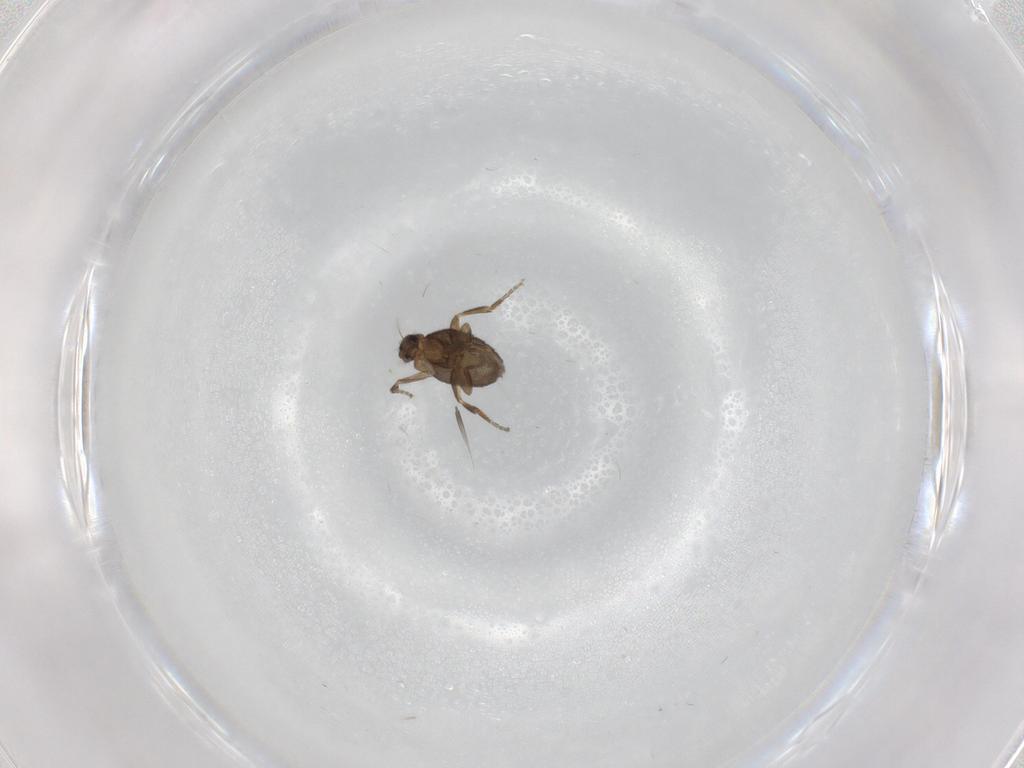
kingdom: Animalia
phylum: Arthropoda
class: Insecta
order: Diptera
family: Phoridae
